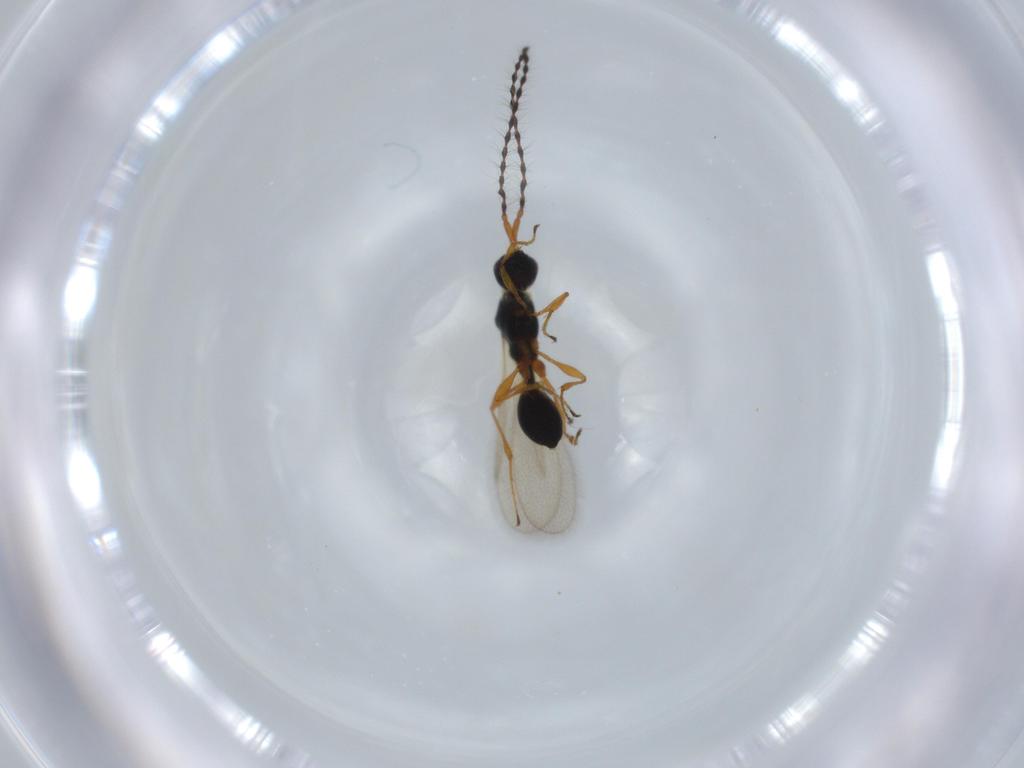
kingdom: Animalia
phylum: Arthropoda
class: Insecta
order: Hymenoptera
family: Diapriidae
